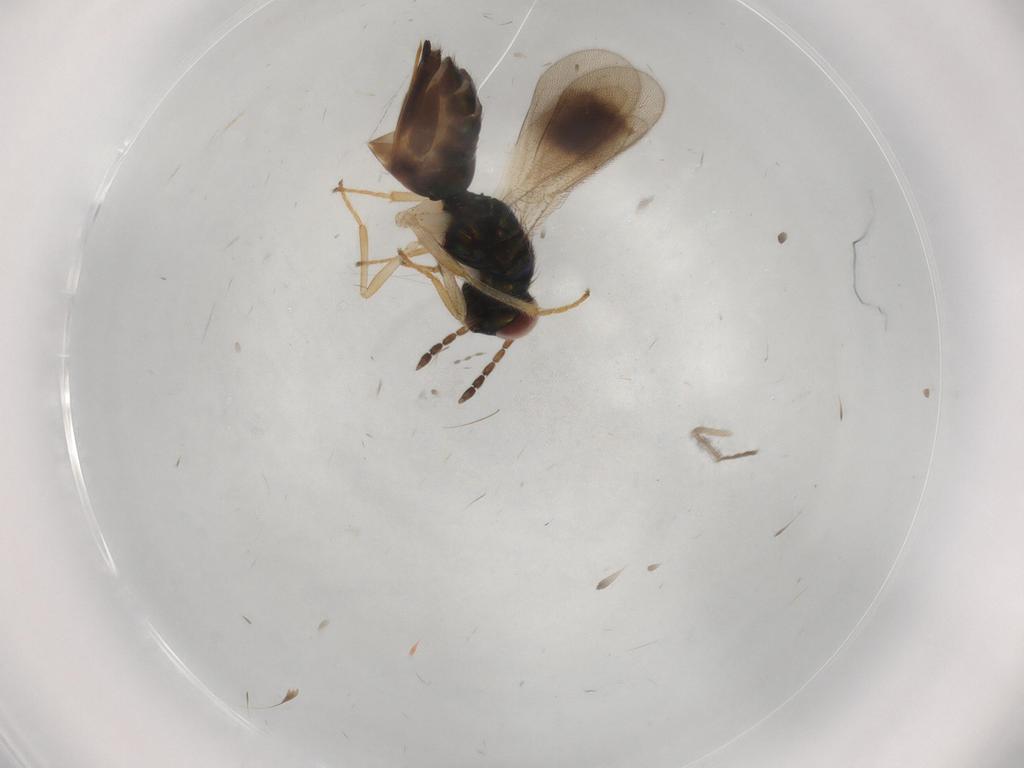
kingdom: Animalia
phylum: Arthropoda
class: Insecta
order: Hymenoptera
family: Eulophidae
